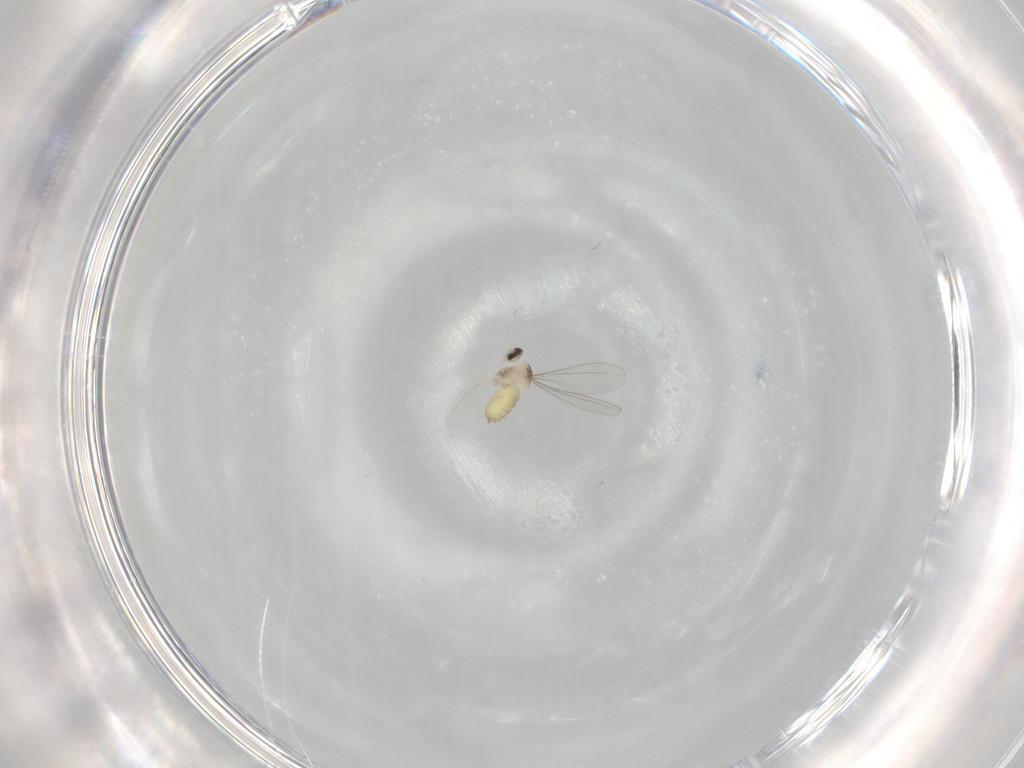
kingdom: Animalia
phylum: Arthropoda
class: Insecta
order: Diptera
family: Cecidomyiidae
